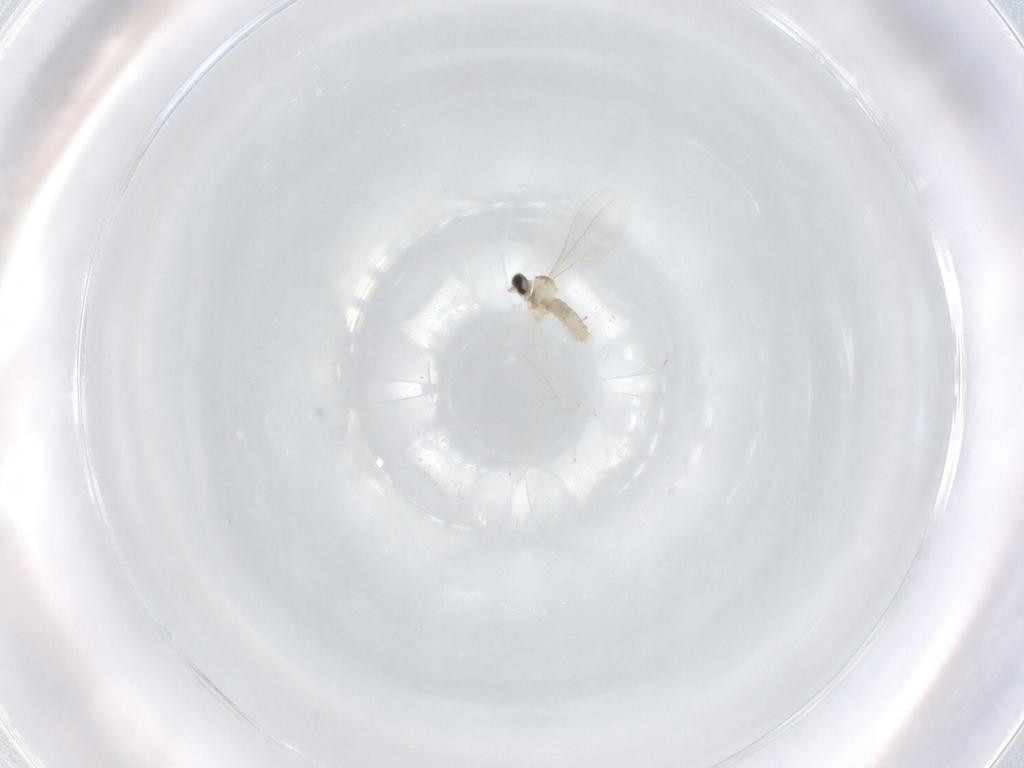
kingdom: Animalia
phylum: Arthropoda
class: Insecta
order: Diptera
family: Cecidomyiidae
